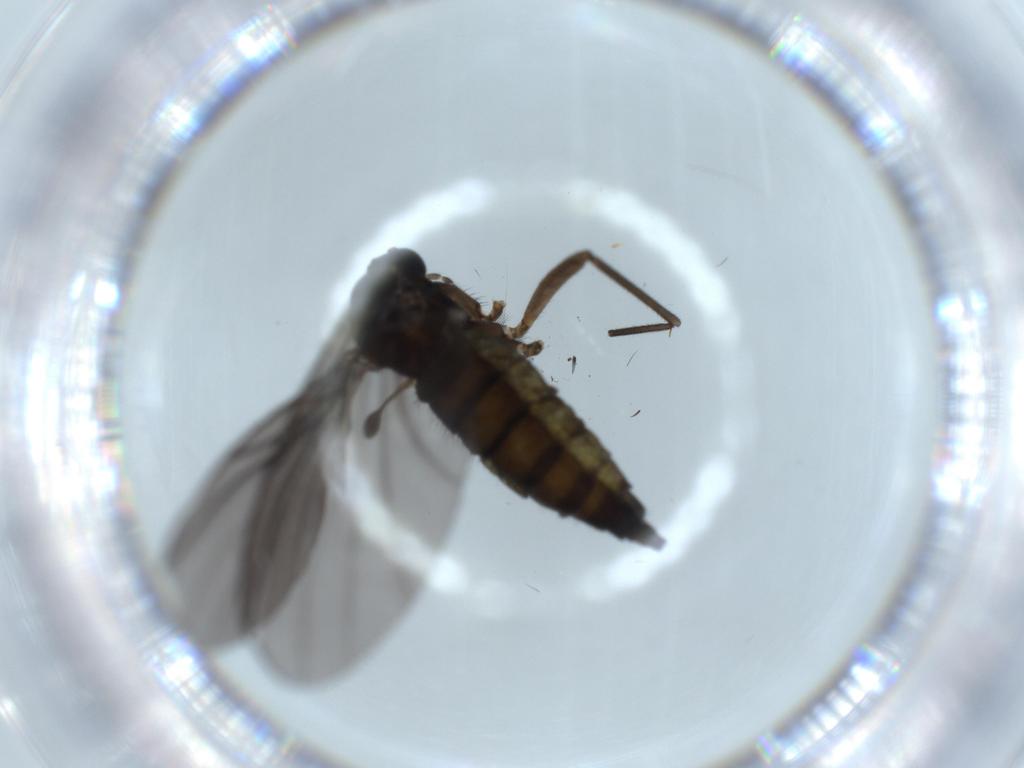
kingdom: Animalia
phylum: Arthropoda
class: Insecta
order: Diptera
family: Sciaridae
